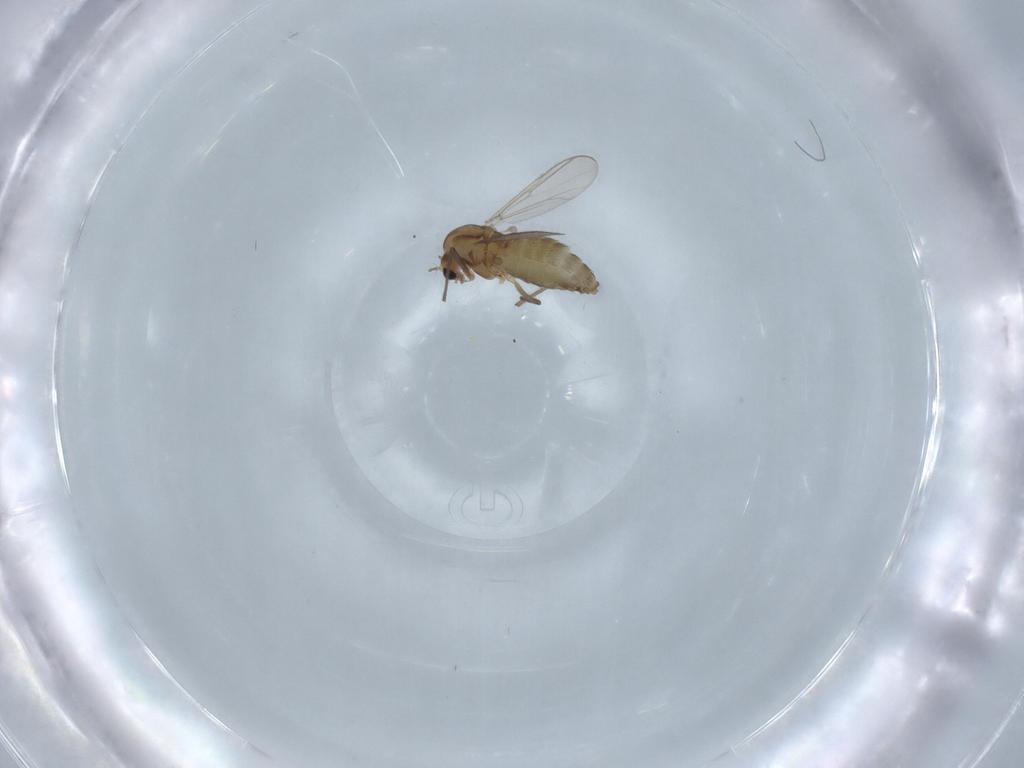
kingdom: Animalia
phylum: Arthropoda
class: Insecta
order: Diptera
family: Chironomidae
